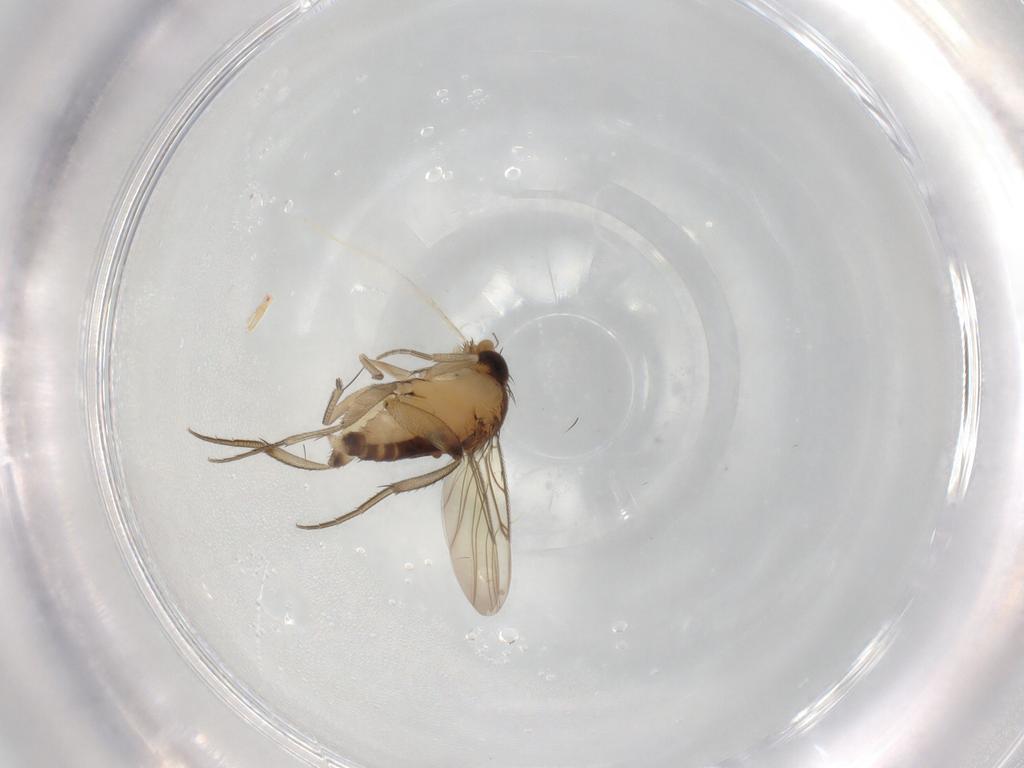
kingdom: Animalia
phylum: Arthropoda
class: Insecta
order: Diptera
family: Phoridae
